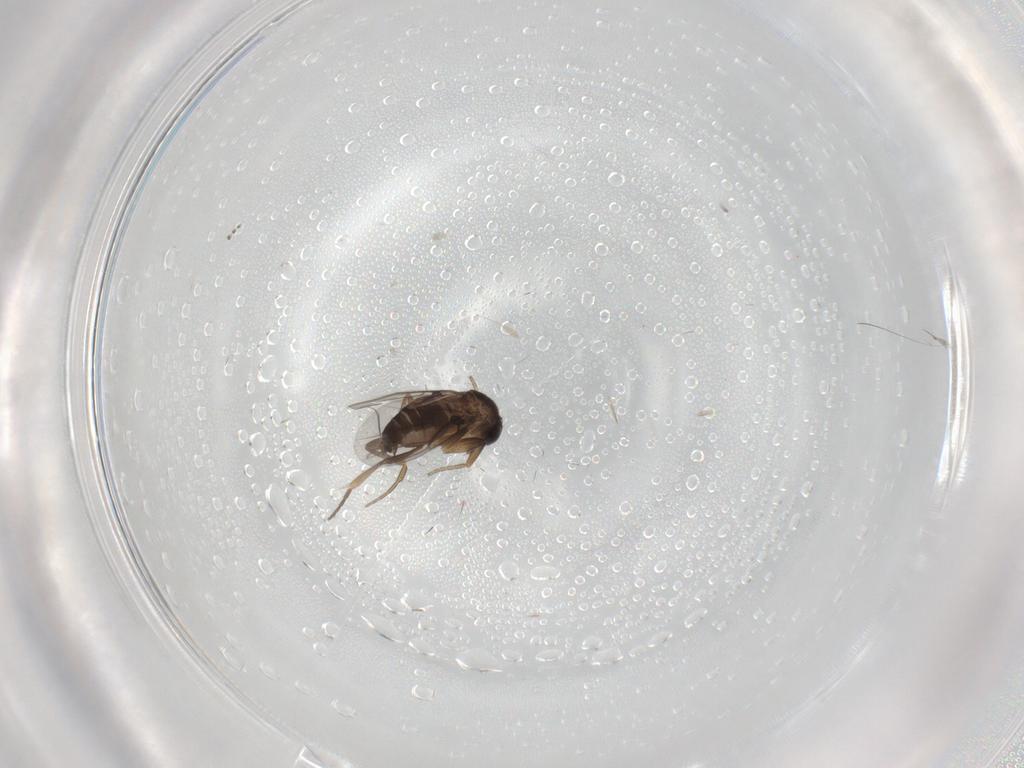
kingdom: Animalia
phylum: Arthropoda
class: Insecta
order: Diptera
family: Phoridae
